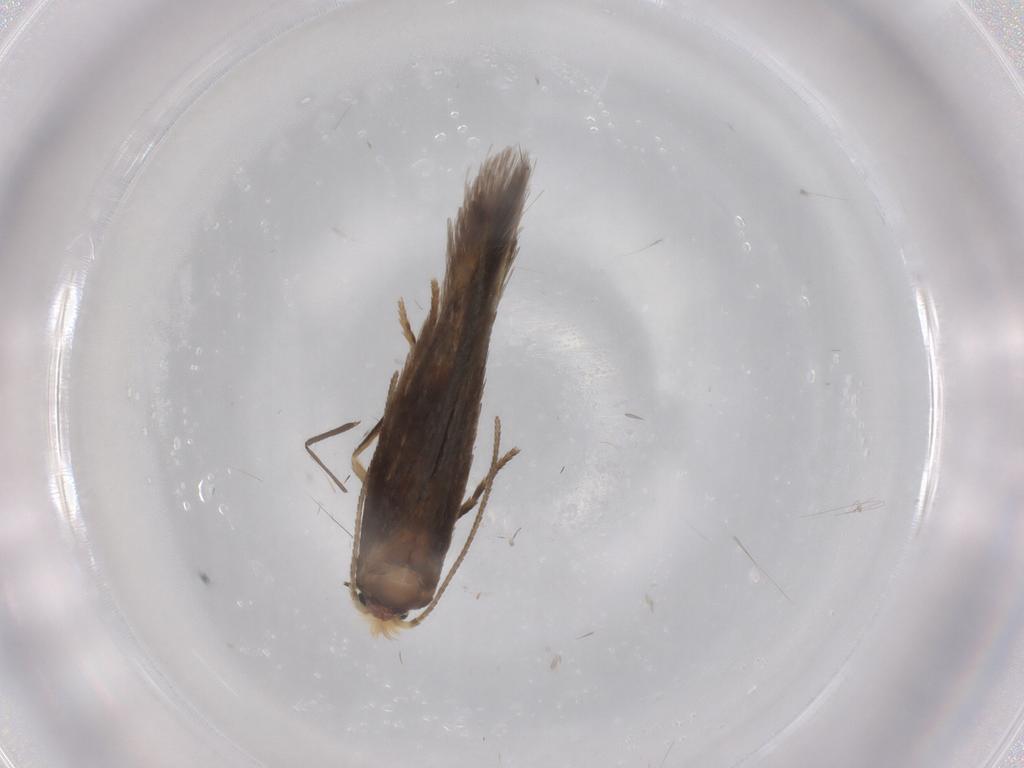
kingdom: Animalia
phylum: Arthropoda
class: Insecta
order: Lepidoptera
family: Nepticulidae
